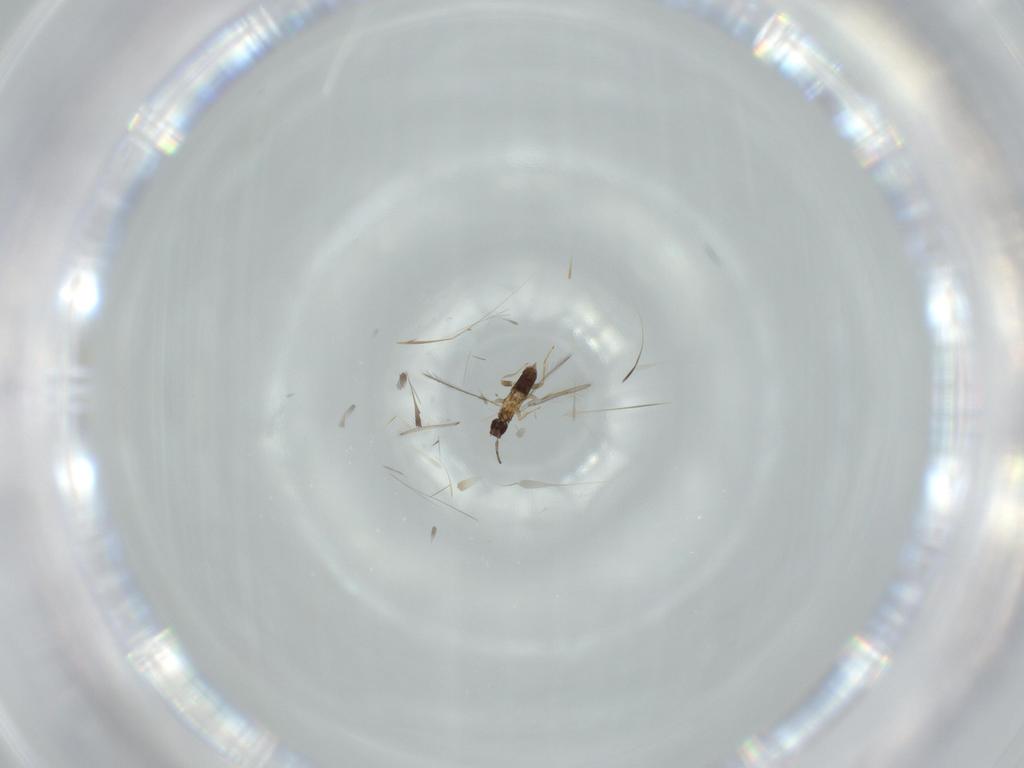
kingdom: Animalia
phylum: Arthropoda
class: Insecta
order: Hymenoptera
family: Mymaridae
